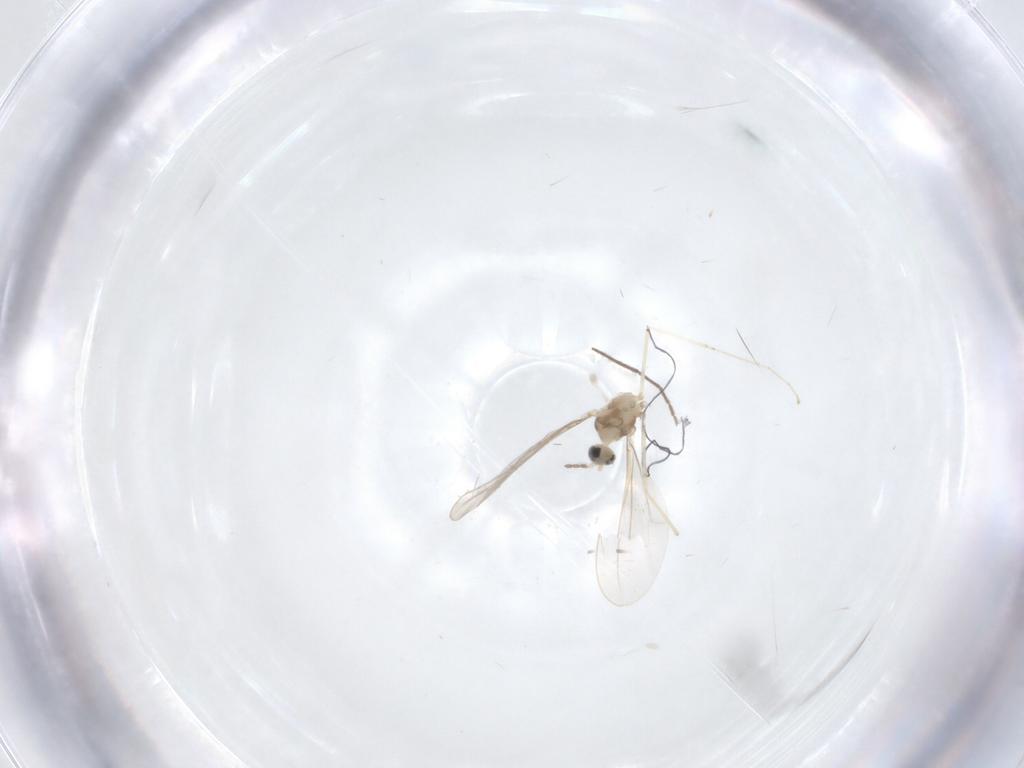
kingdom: Animalia
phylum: Arthropoda
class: Insecta
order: Diptera
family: Cecidomyiidae
